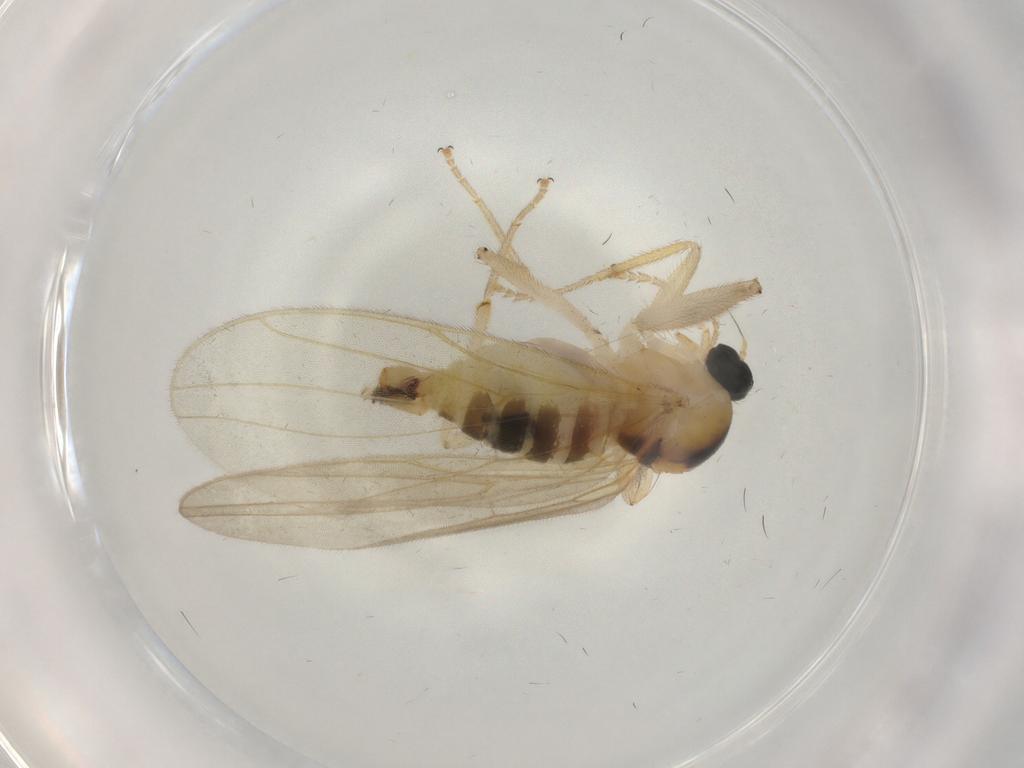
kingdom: Animalia
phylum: Arthropoda
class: Insecta
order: Diptera
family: Hybotidae
